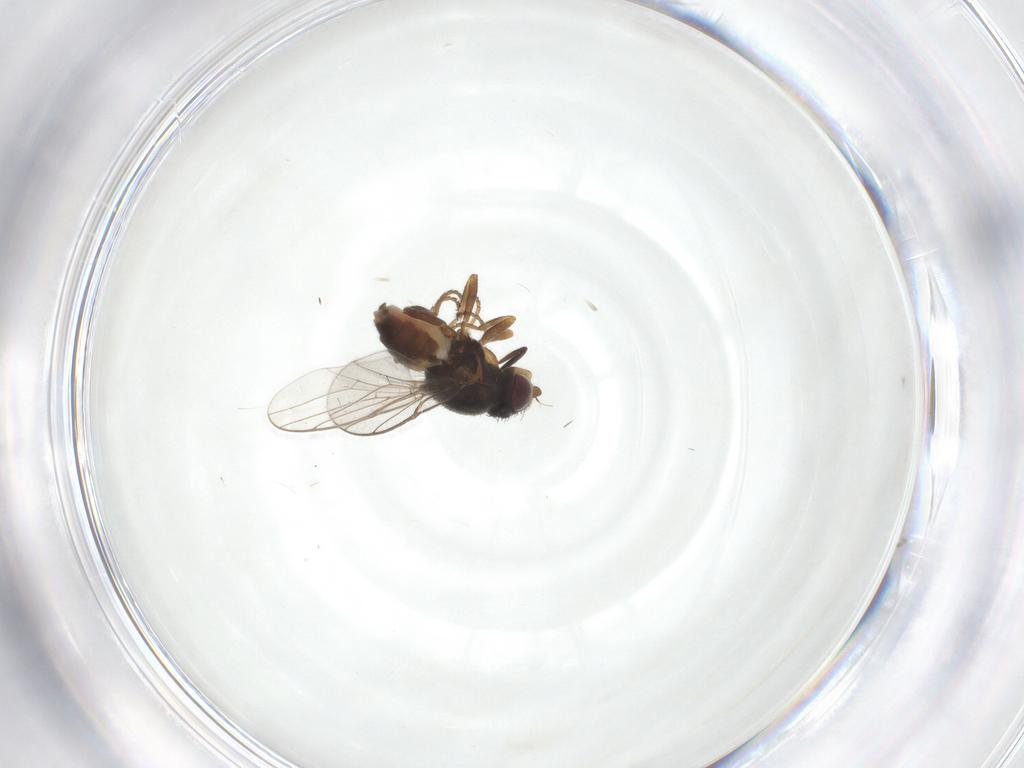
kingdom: Animalia
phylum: Arthropoda
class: Insecta
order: Diptera
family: Chloropidae
